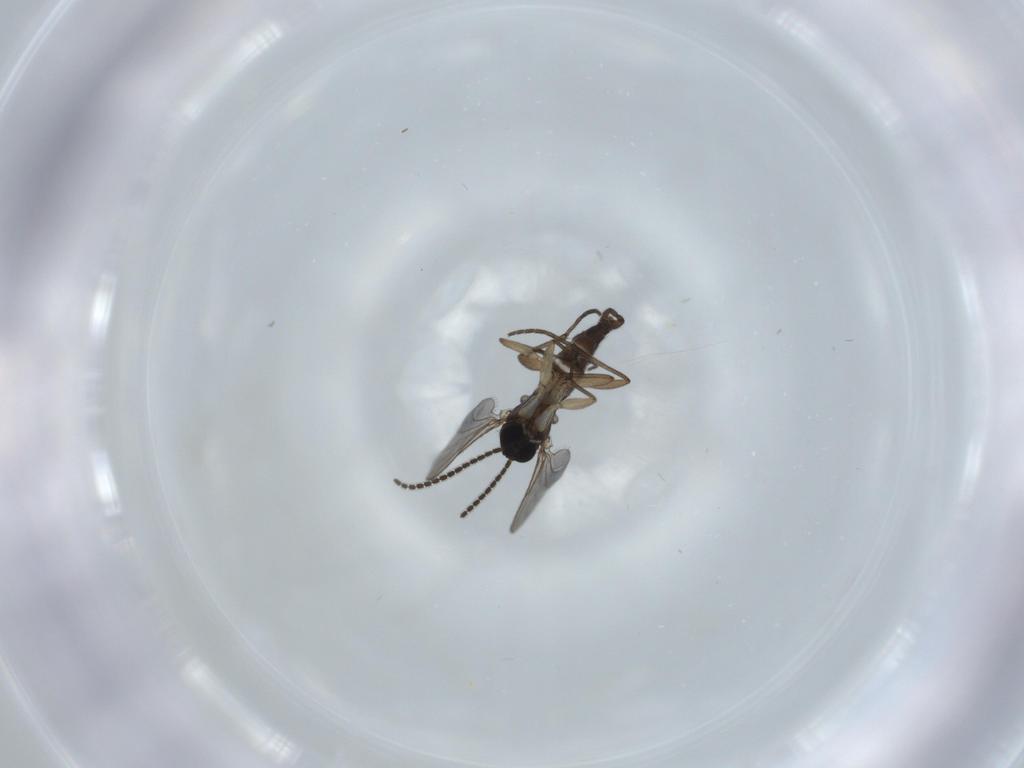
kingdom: Animalia
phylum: Arthropoda
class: Insecta
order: Diptera
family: Sciaridae
